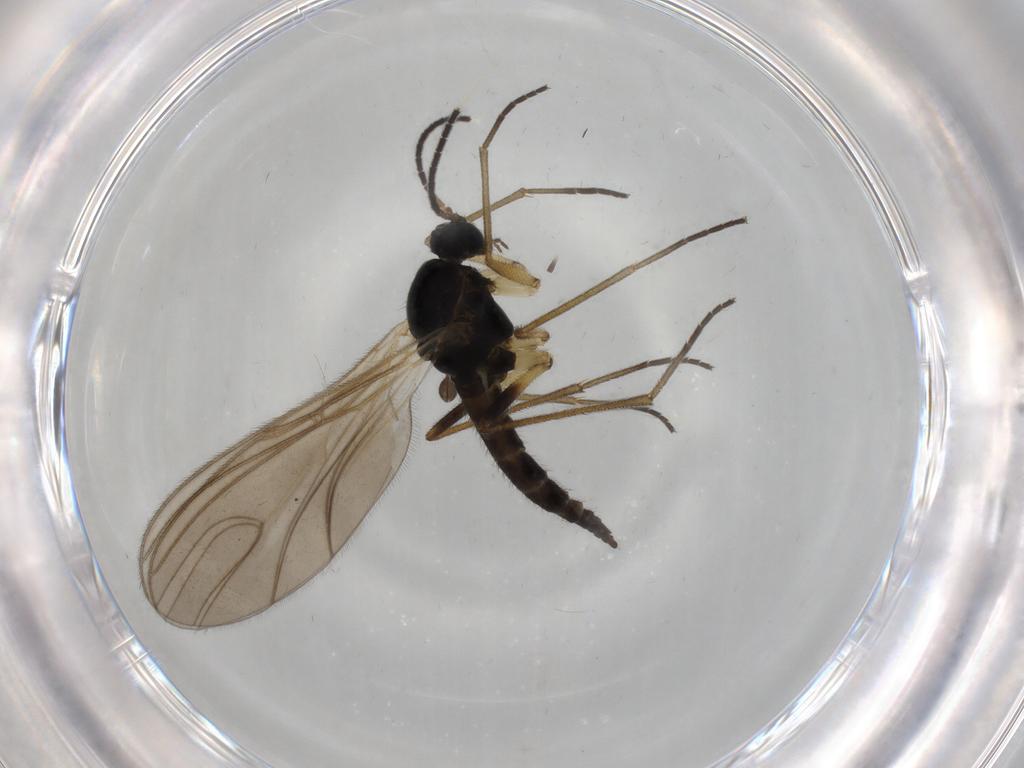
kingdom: Animalia
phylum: Arthropoda
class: Insecta
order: Diptera
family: Sciaridae
